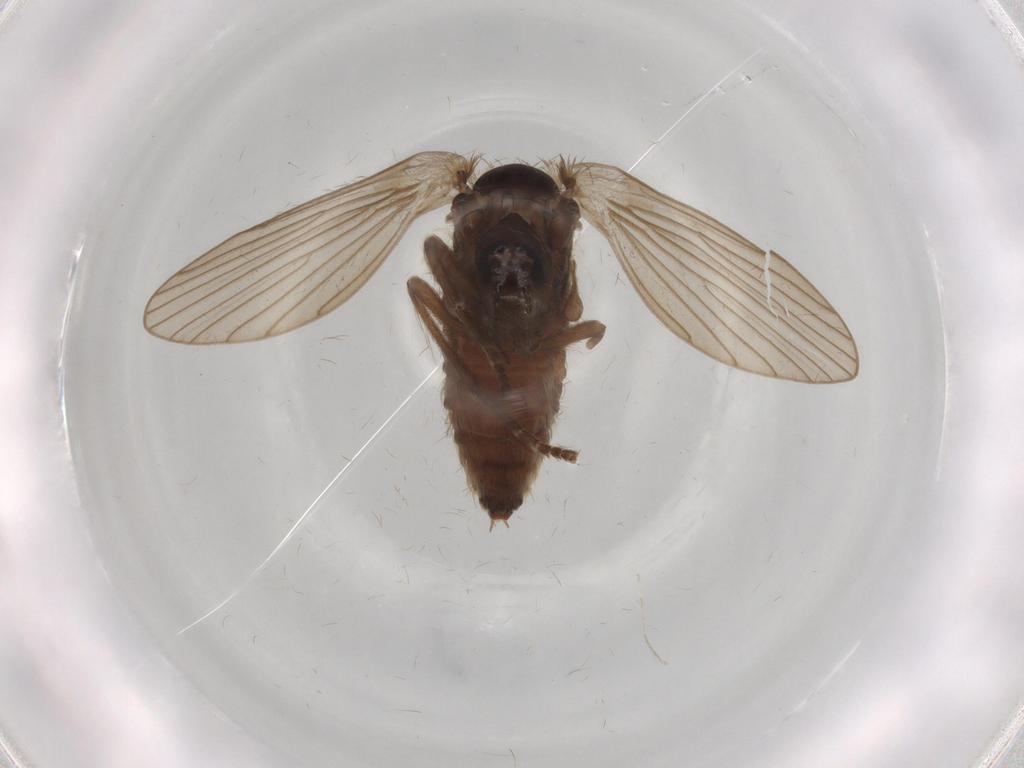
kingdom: Animalia
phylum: Arthropoda
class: Insecta
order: Diptera
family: Psychodidae
